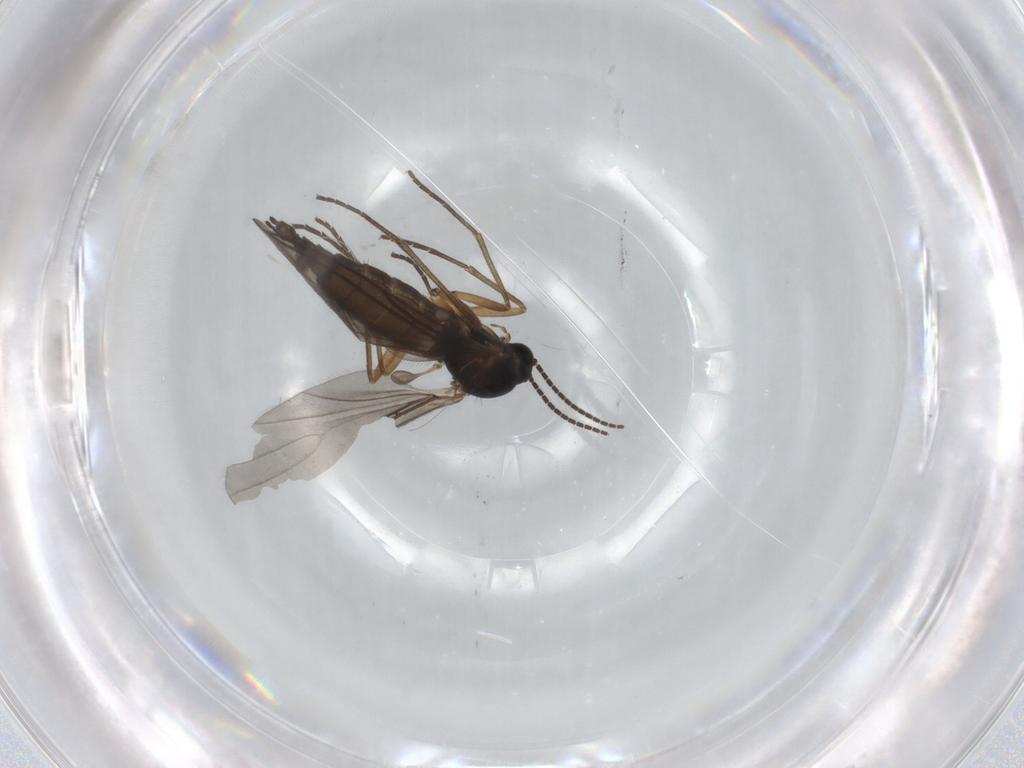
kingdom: Animalia
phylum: Arthropoda
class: Insecta
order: Diptera
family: Sciaridae
